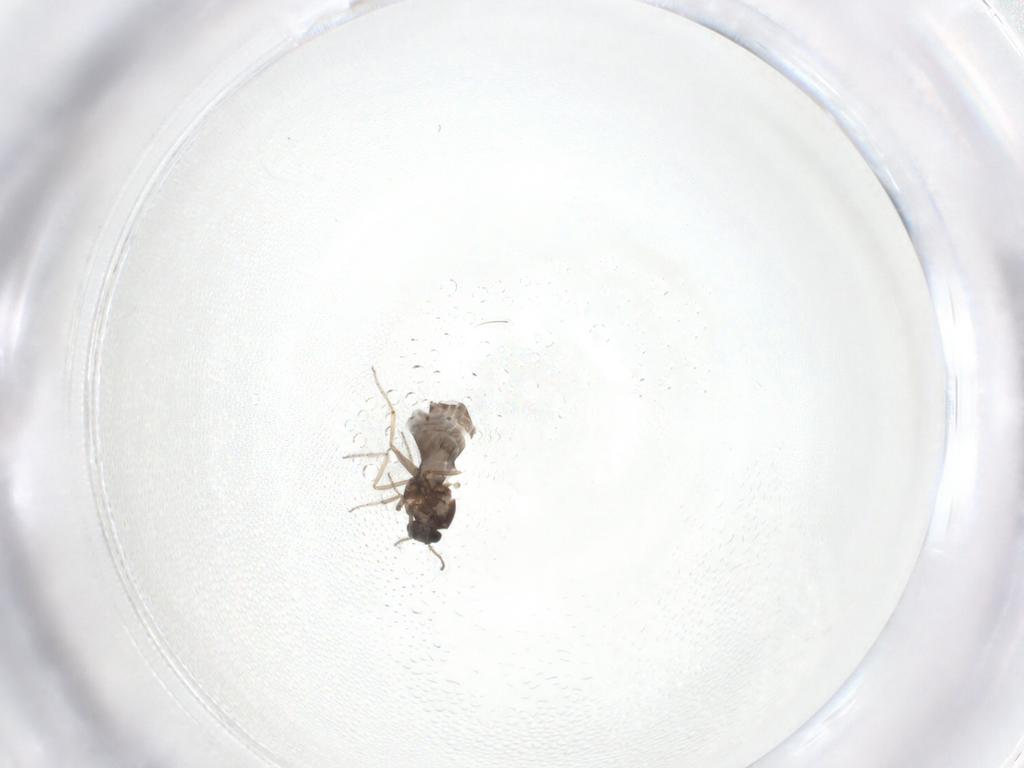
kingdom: Animalia
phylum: Arthropoda
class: Insecta
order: Diptera
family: Ceratopogonidae
